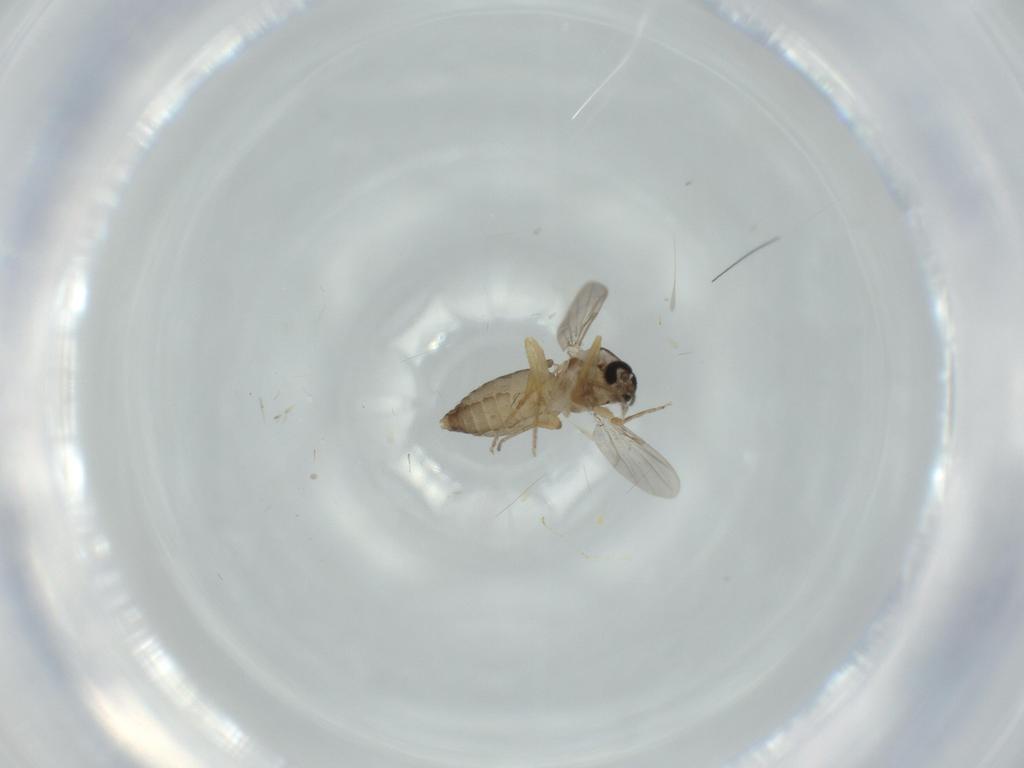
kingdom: Animalia
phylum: Arthropoda
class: Insecta
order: Diptera
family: Ceratopogonidae
